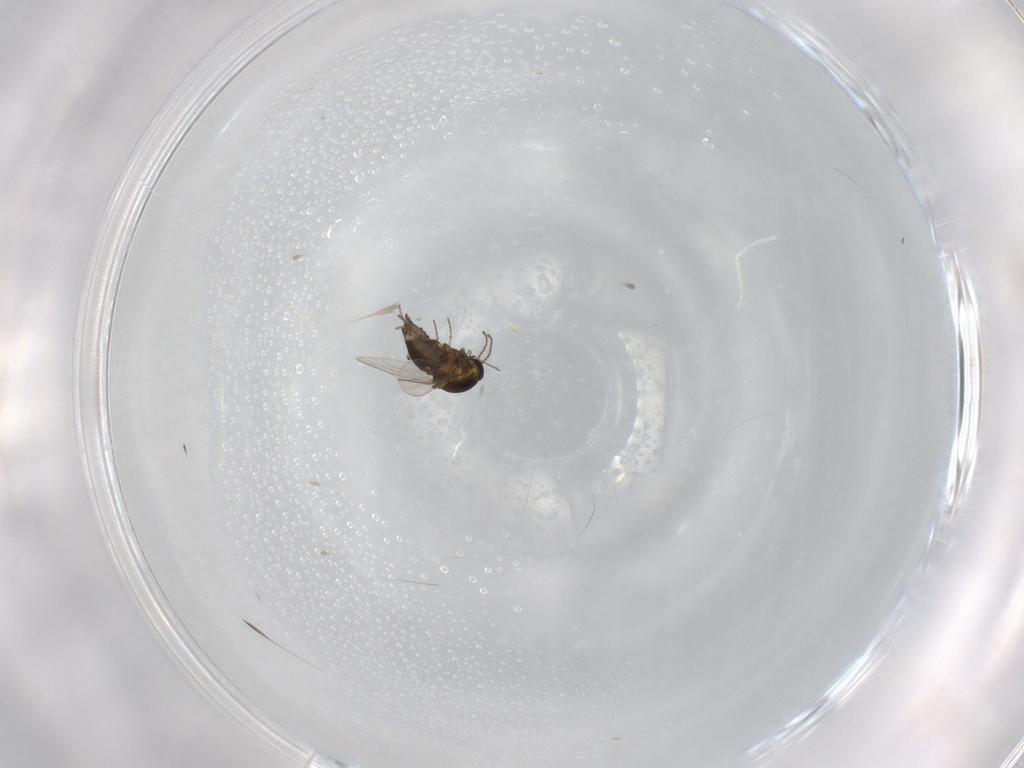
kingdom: Animalia
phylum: Arthropoda
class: Insecta
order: Diptera
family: Ceratopogonidae
